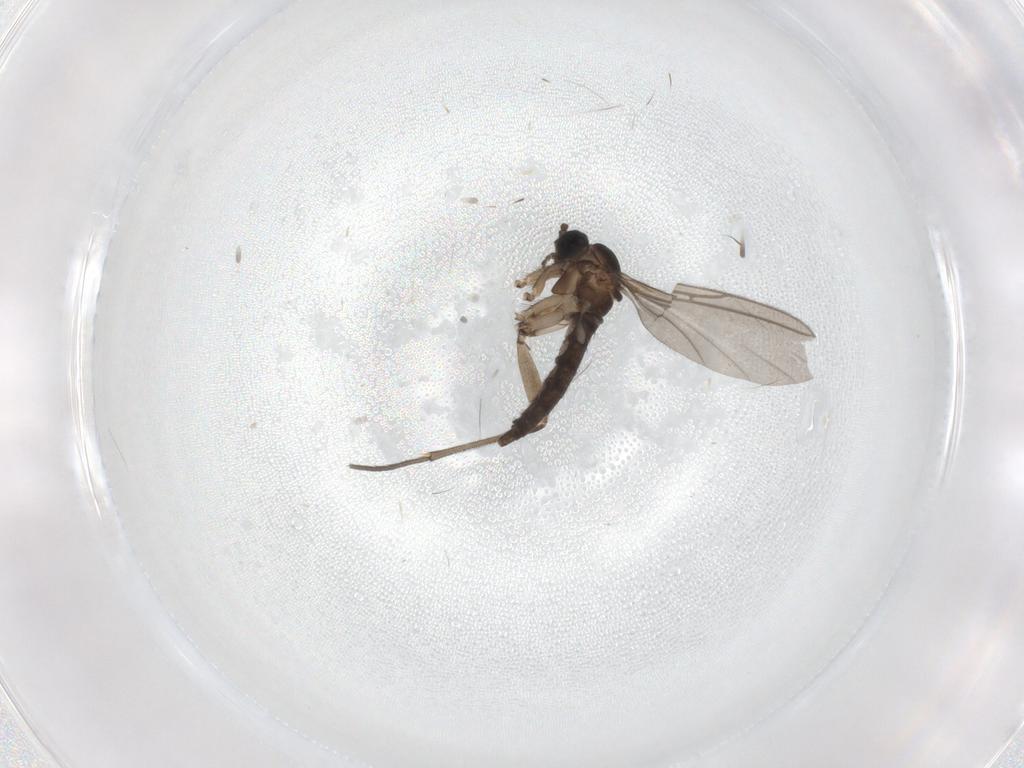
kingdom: Animalia
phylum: Arthropoda
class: Insecta
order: Diptera
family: Sciaridae
